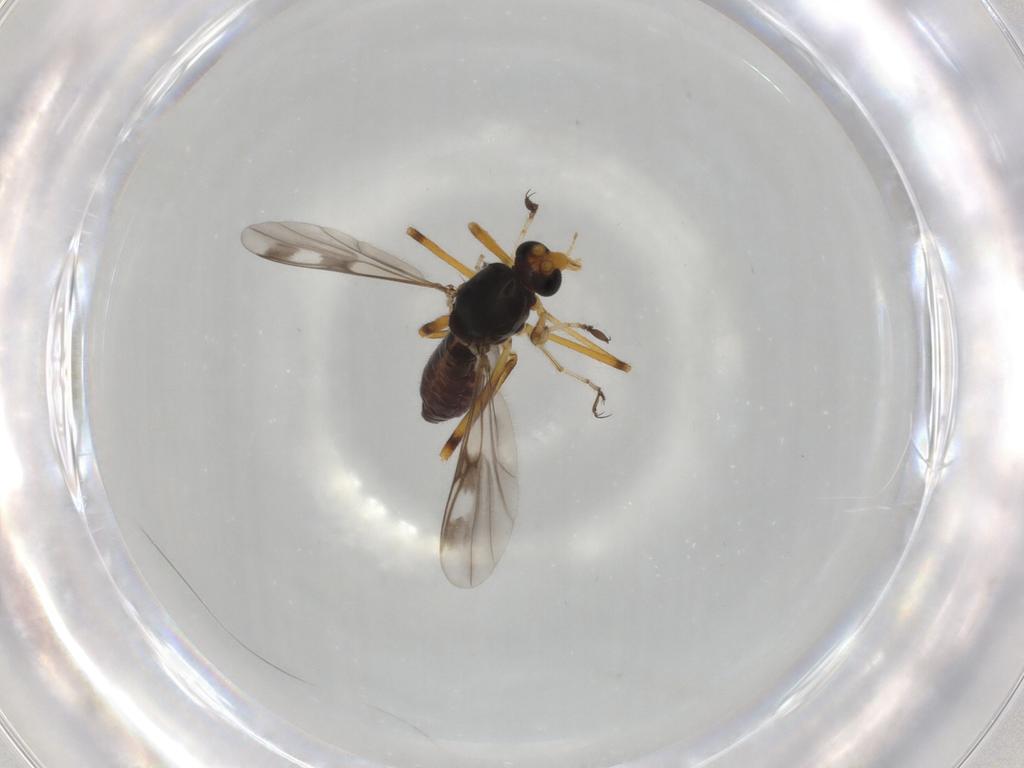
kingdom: Animalia
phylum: Arthropoda
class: Insecta
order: Diptera
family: Ceratopogonidae
